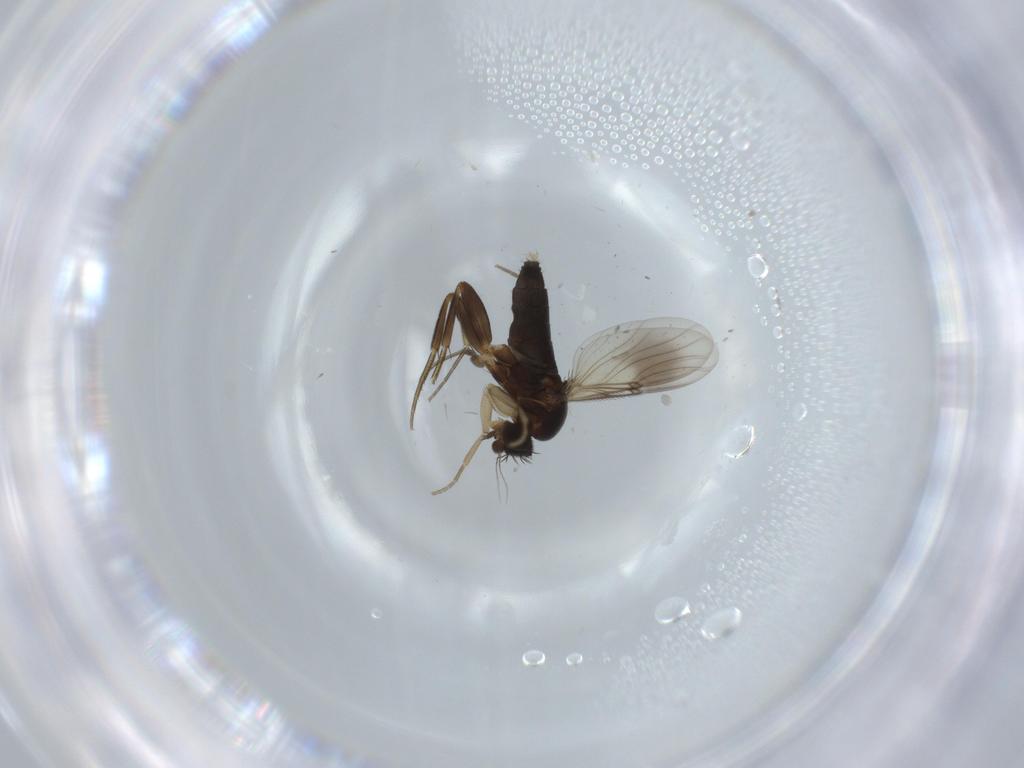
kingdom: Animalia
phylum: Arthropoda
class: Insecta
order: Diptera
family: Phoridae
